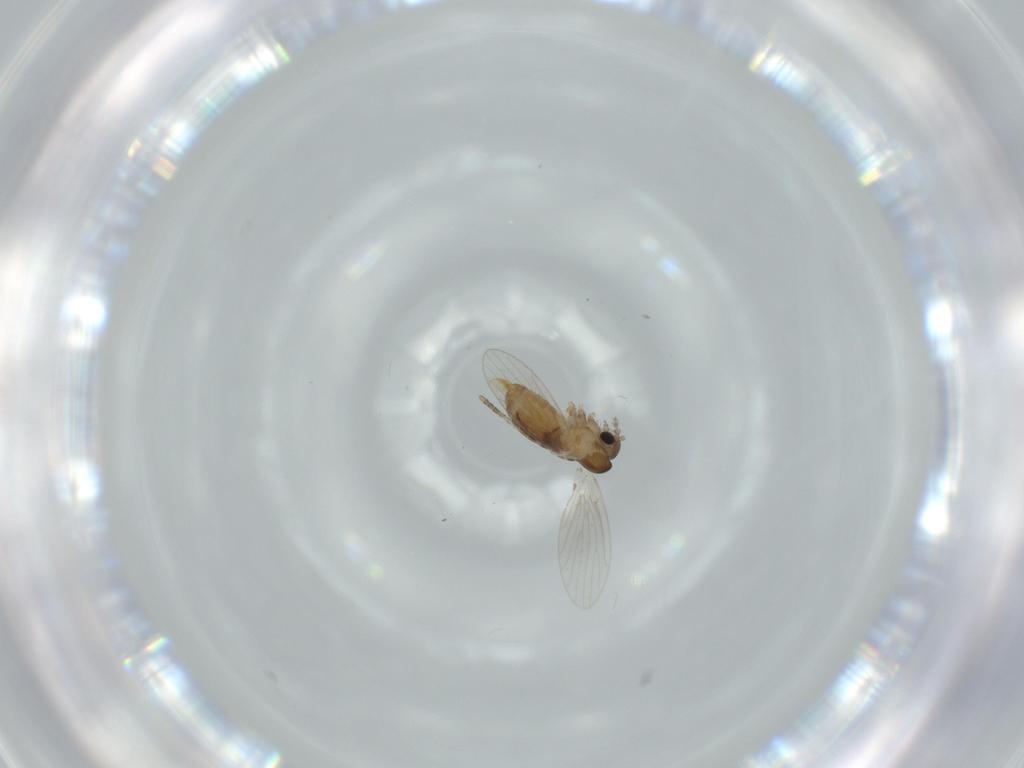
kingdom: Animalia
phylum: Arthropoda
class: Insecta
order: Diptera
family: Psychodidae
